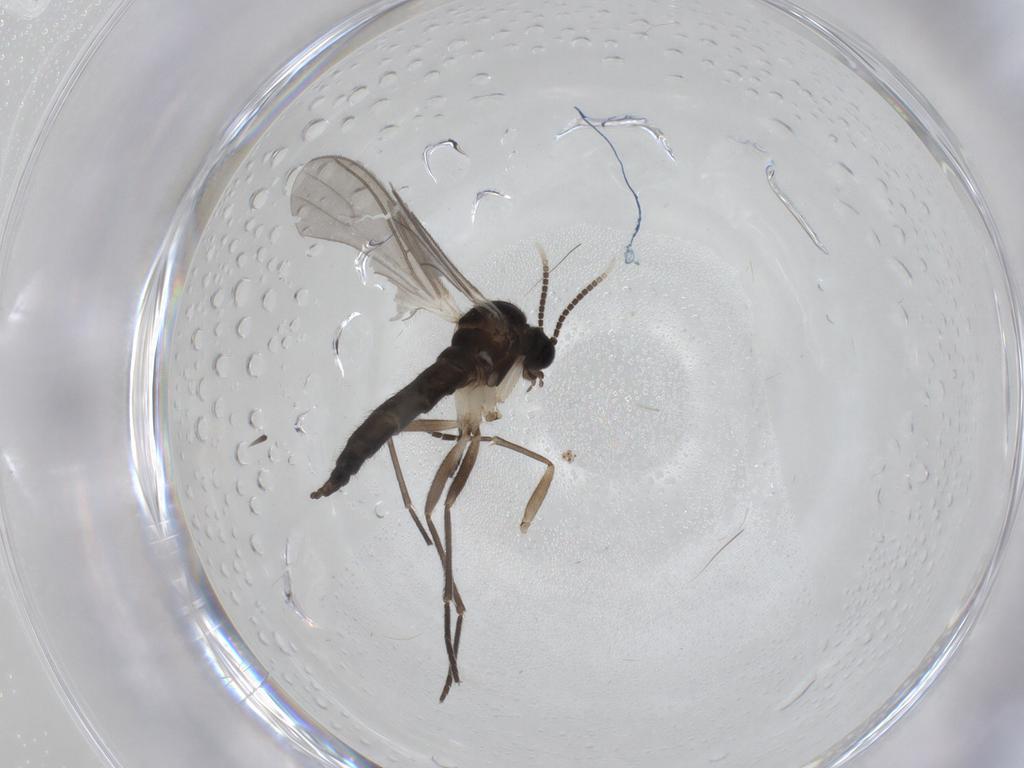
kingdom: Animalia
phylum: Arthropoda
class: Insecta
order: Diptera
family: Sciaridae
